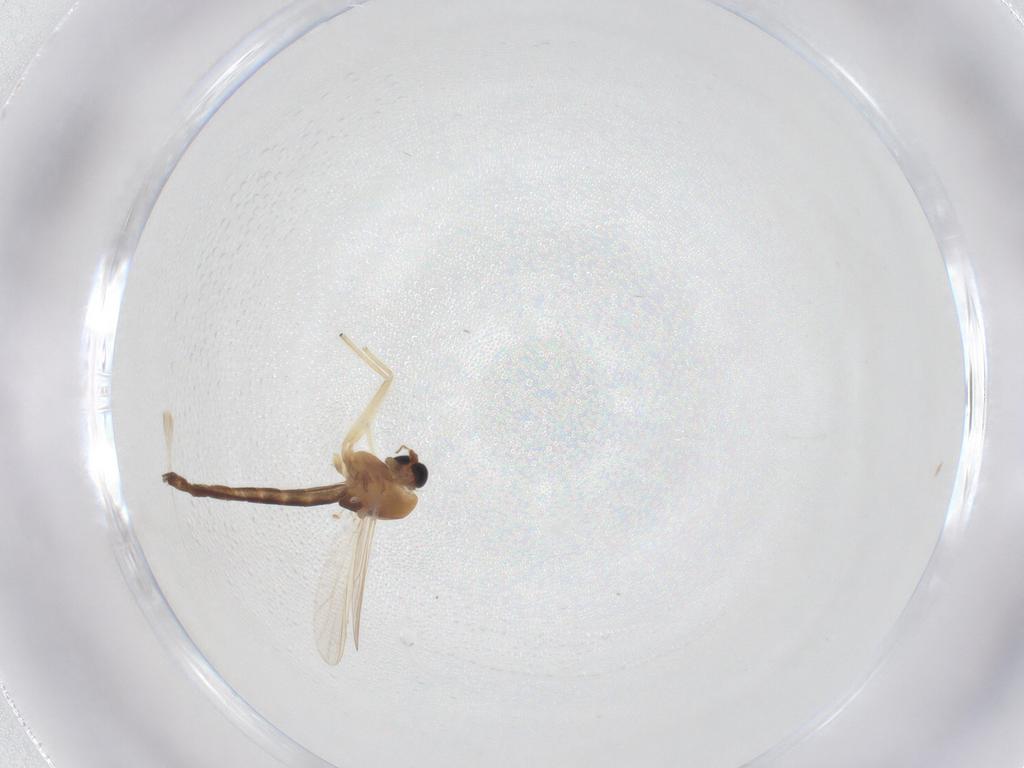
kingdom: Animalia
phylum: Arthropoda
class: Insecta
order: Diptera
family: Chironomidae
